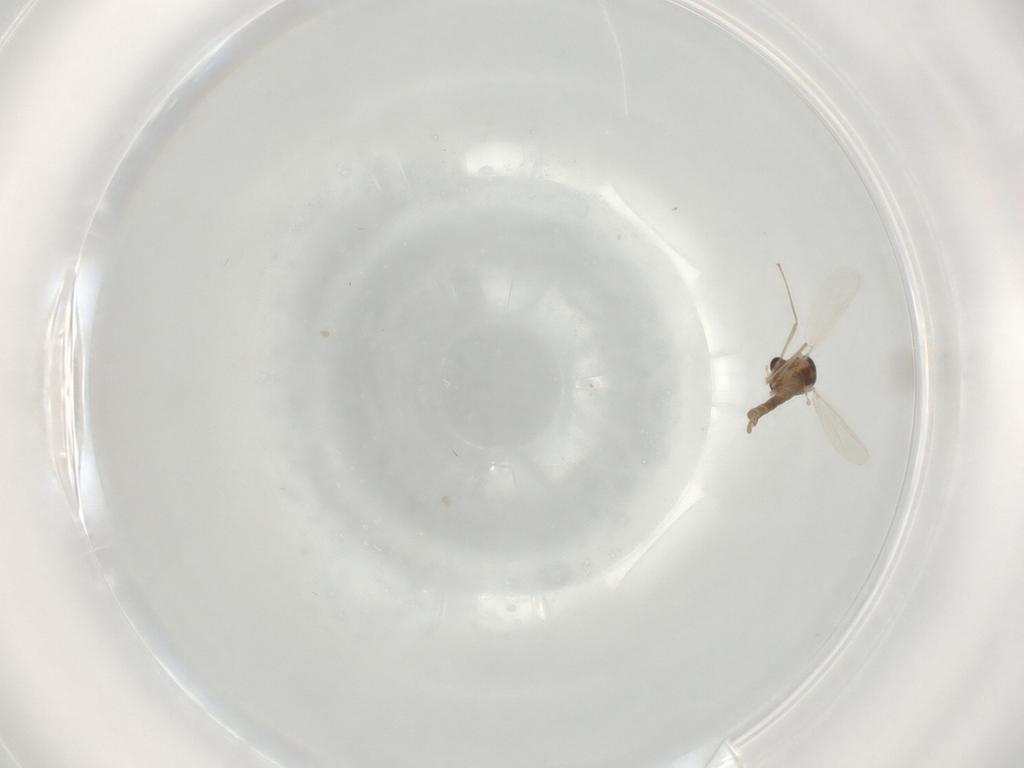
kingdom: Animalia
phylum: Arthropoda
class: Insecta
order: Diptera
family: Chironomidae
